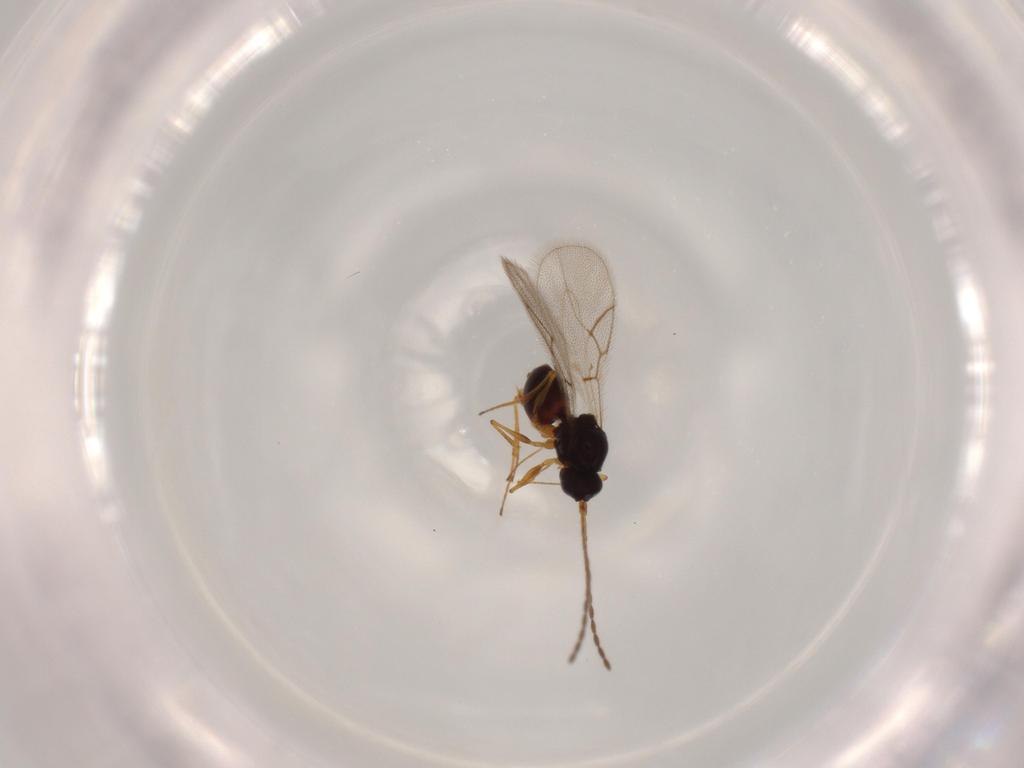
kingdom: Animalia
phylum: Arthropoda
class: Insecta
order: Hymenoptera
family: Figitidae
